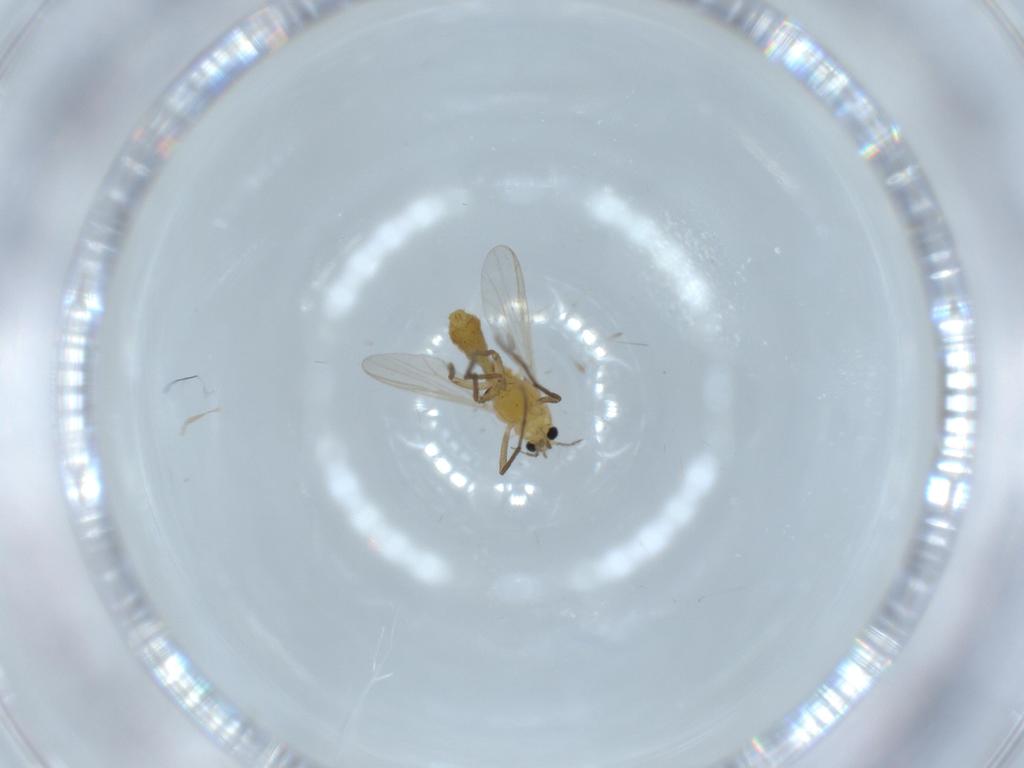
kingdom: Animalia
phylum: Arthropoda
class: Insecta
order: Diptera
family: Chironomidae
